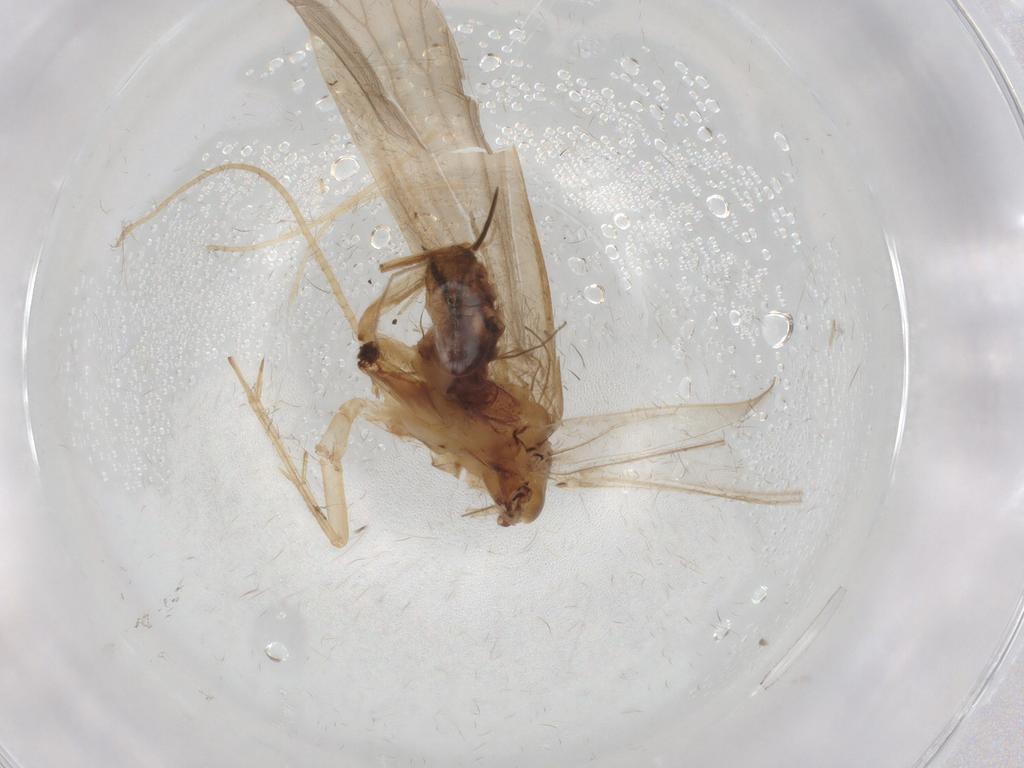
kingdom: Animalia
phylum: Arthropoda
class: Insecta
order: Trichoptera
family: Ecnomidae
